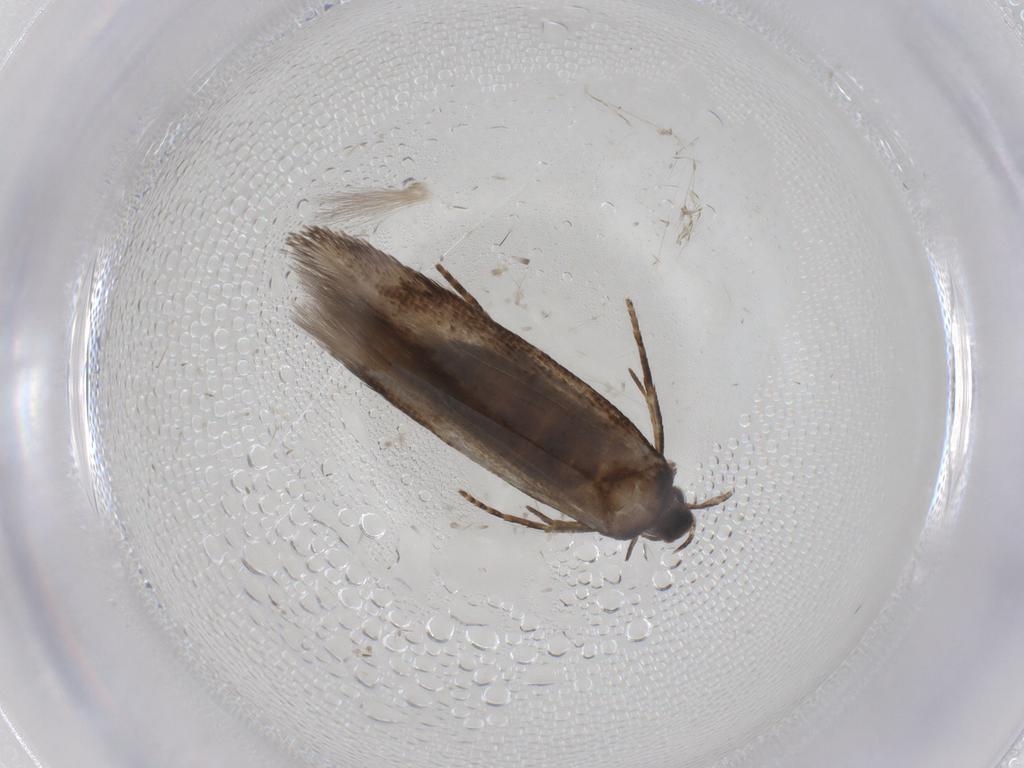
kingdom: Animalia
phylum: Arthropoda
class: Insecta
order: Lepidoptera
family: Cosmopterigidae
